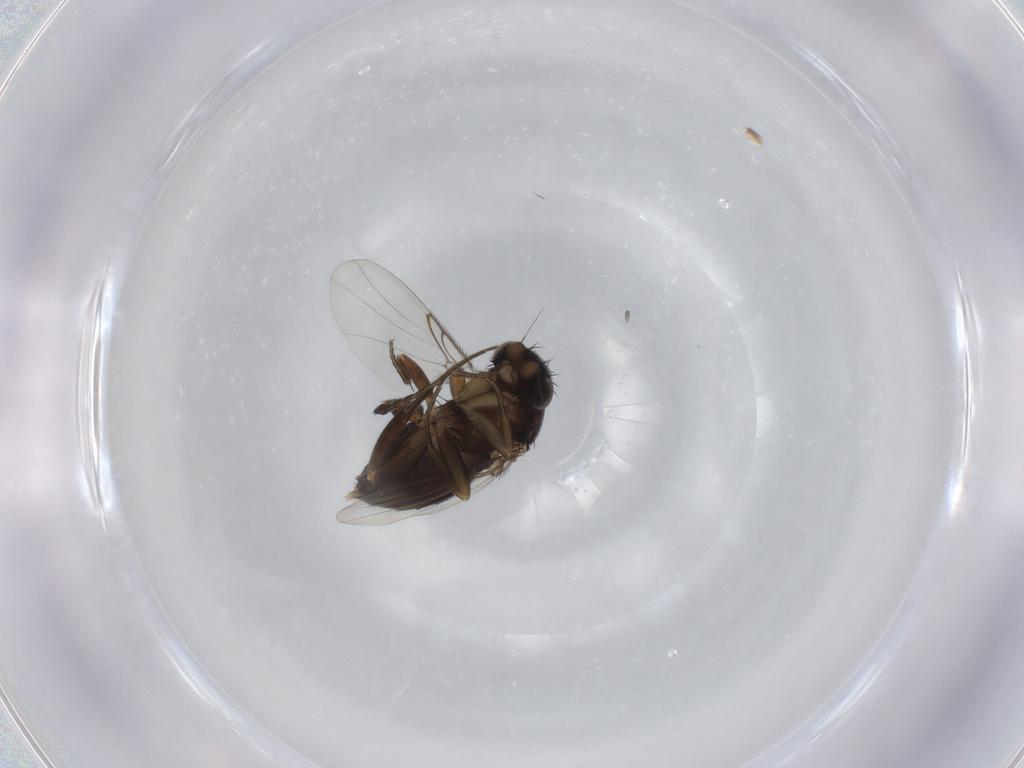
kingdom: Animalia
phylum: Arthropoda
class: Insecta
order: Diptera
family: Phoridae
